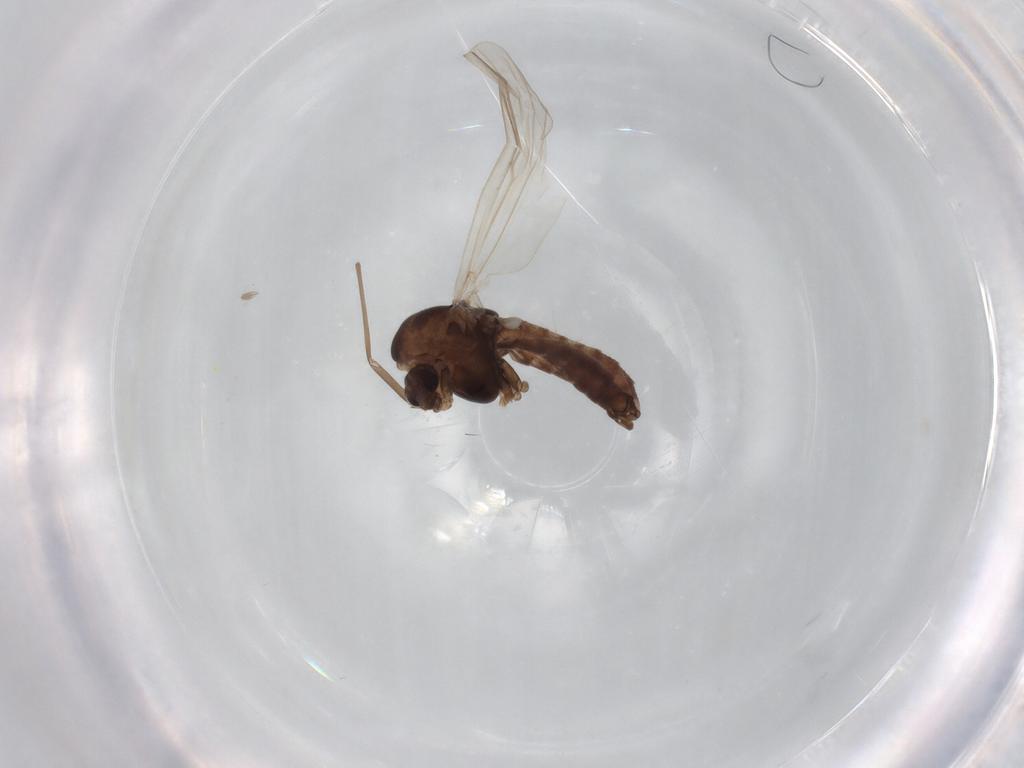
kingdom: Animalia
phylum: Arthropoda
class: Insecta
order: Diptera
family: Chironomidae
